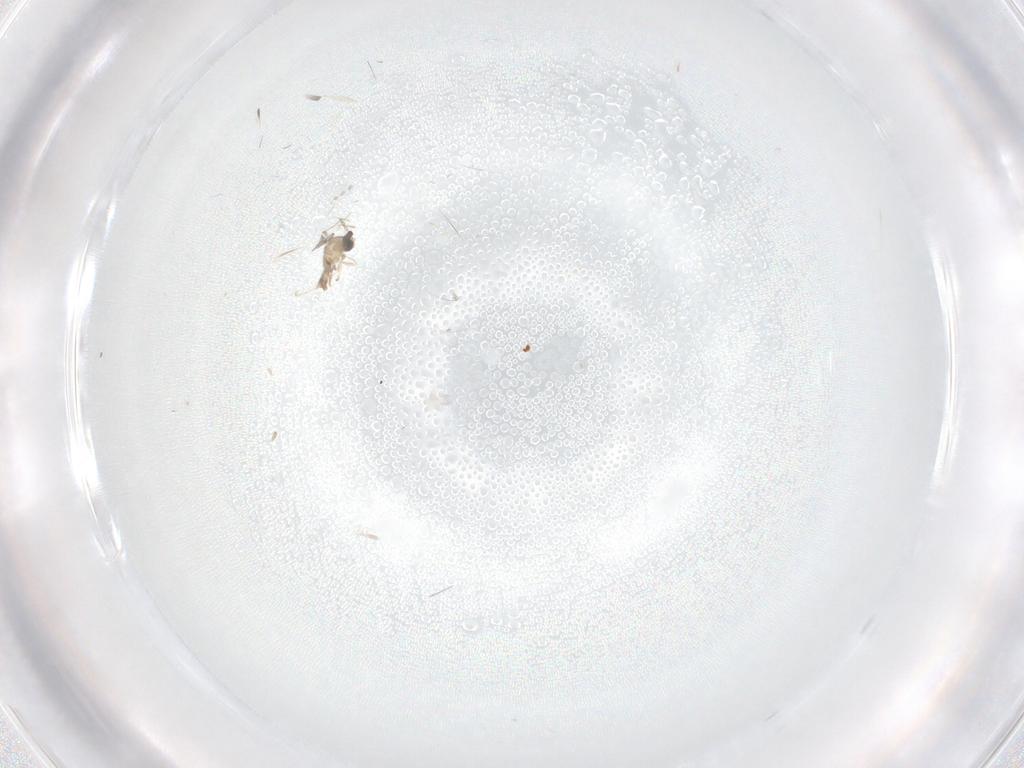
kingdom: Animalia
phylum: Arthropoda
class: Insecta
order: Diptera
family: Cecidomyiidae
